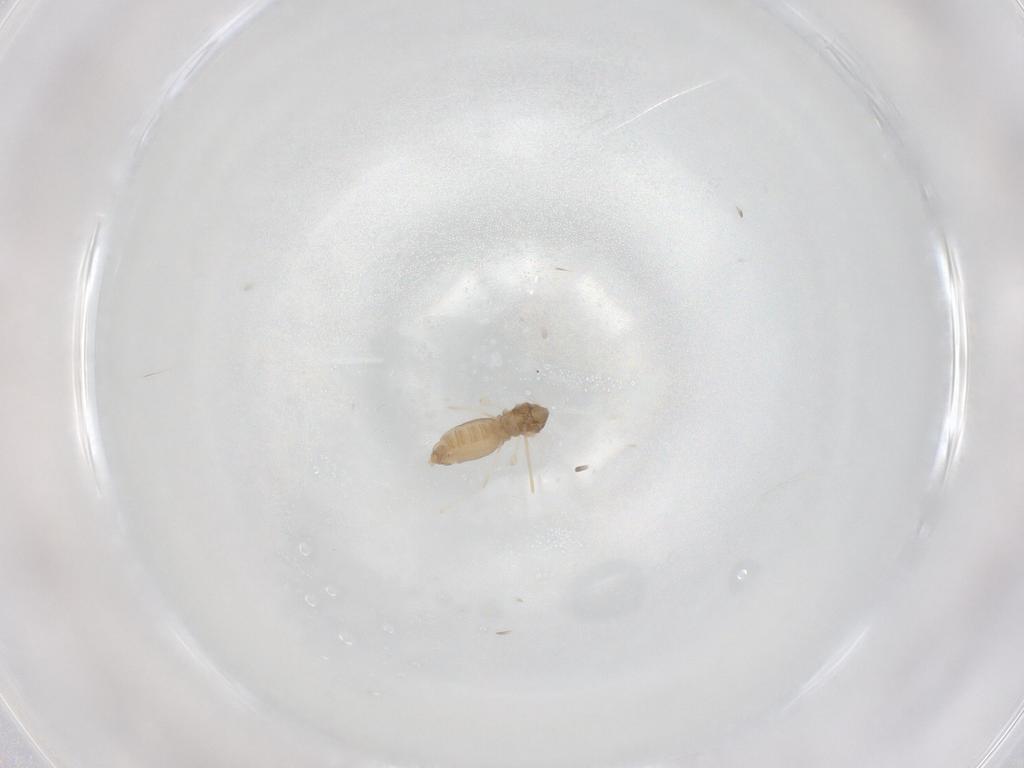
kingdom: Animalia
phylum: Arthropoda
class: Insecta
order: Diptera
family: Cecidomyiidae
